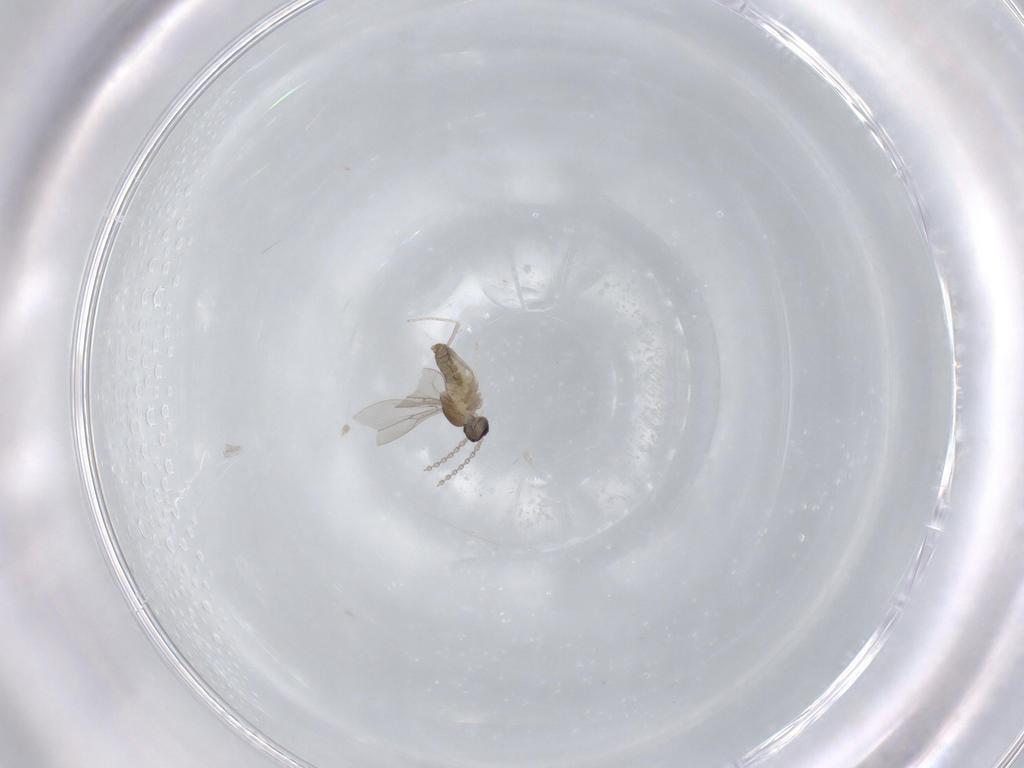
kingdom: Animalia
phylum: Arthropoda
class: Insecta
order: Diptera
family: Cecidomyiidae
